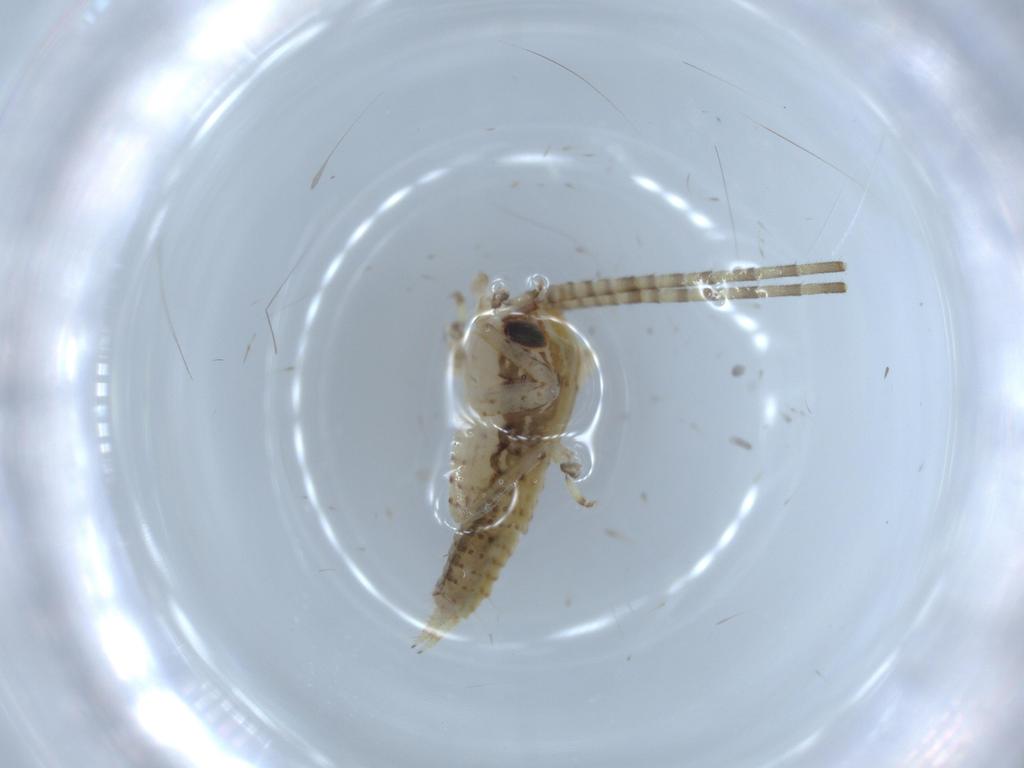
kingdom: Animalia
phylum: Arthropoda
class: Insecta
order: Orthoptera
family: Gryllidae
